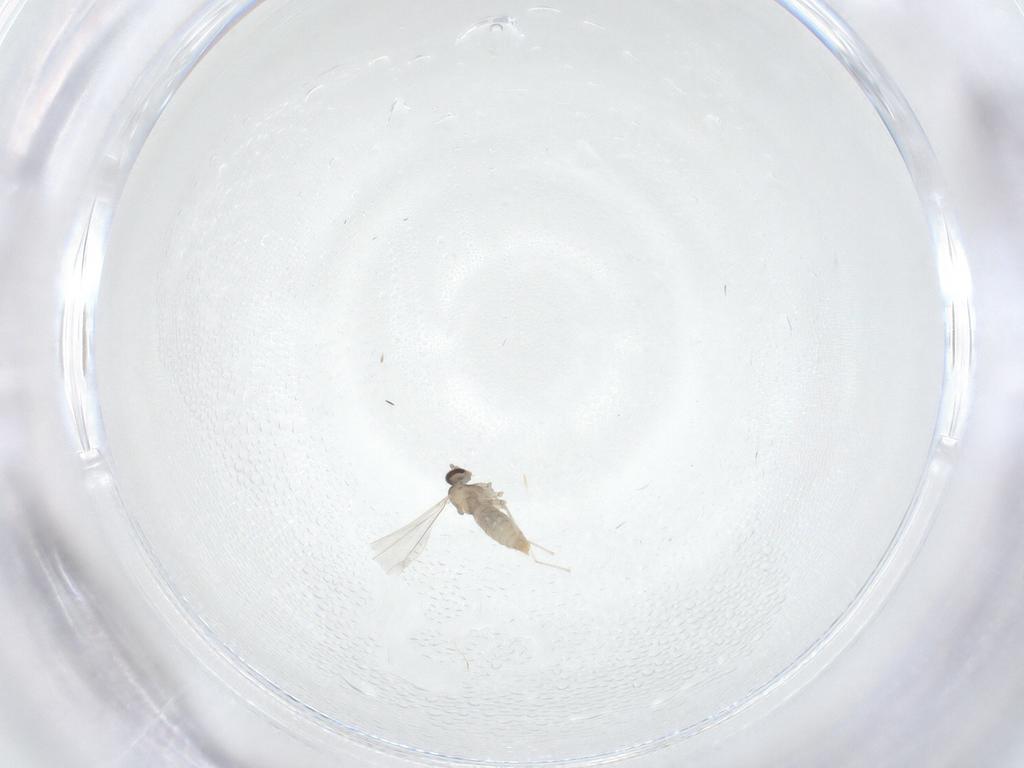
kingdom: Animalia
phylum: Arthropoda
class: Insecta
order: Diptera
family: Cecidomyiidae
